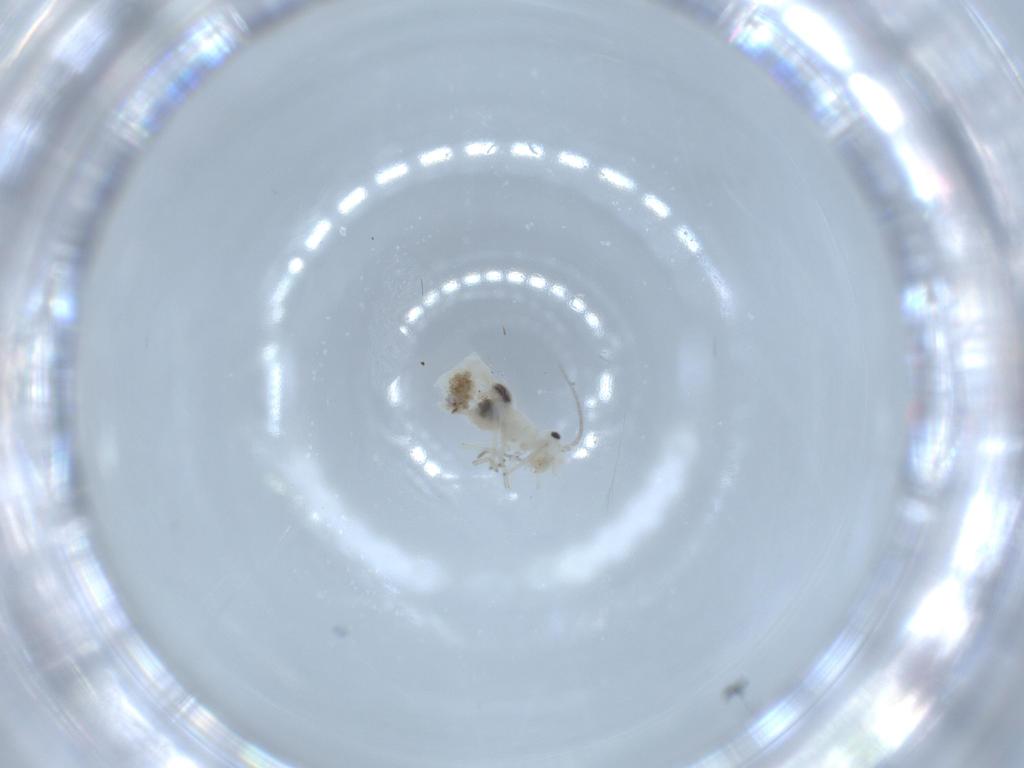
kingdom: Animalia
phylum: Arthropoda
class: Insecta
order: Psocodea
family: Caeciliusidae
